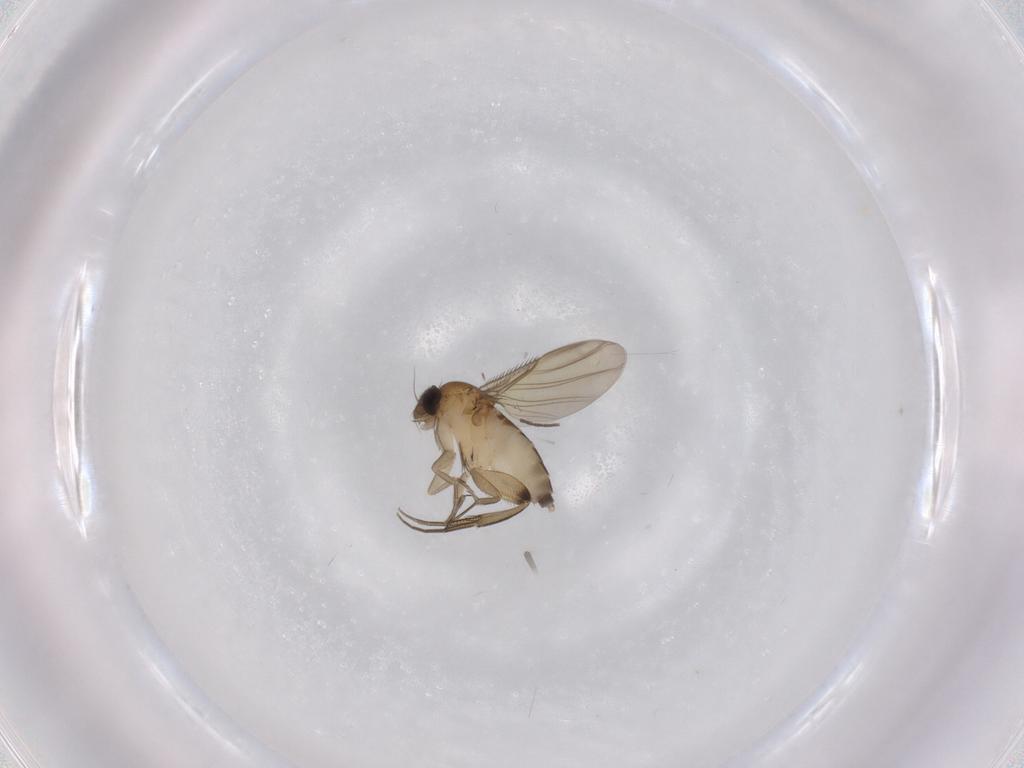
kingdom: Animalia
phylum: Arthropoda
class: Insecta
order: Diptera
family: Phoridae
